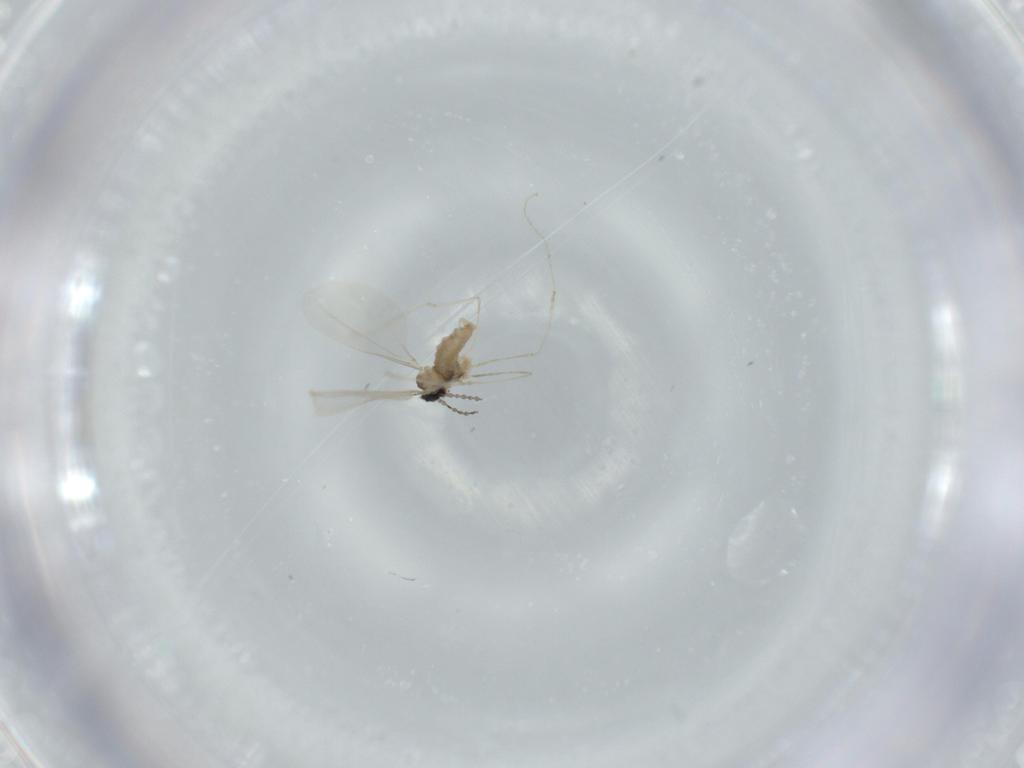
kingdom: Animalia
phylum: Arthropoda
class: Insecta
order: Diptera
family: Cecidomyiidae
